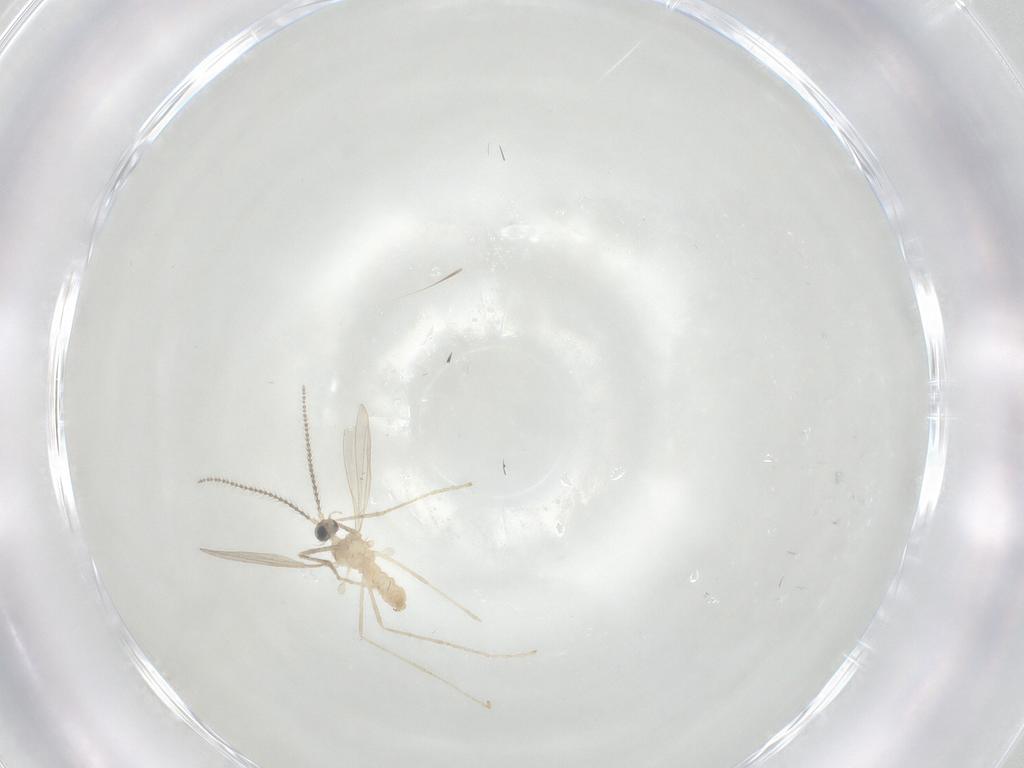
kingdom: Animalia
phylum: Arthropoda
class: Insecta
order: Diptera
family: Cecidomyiidae
